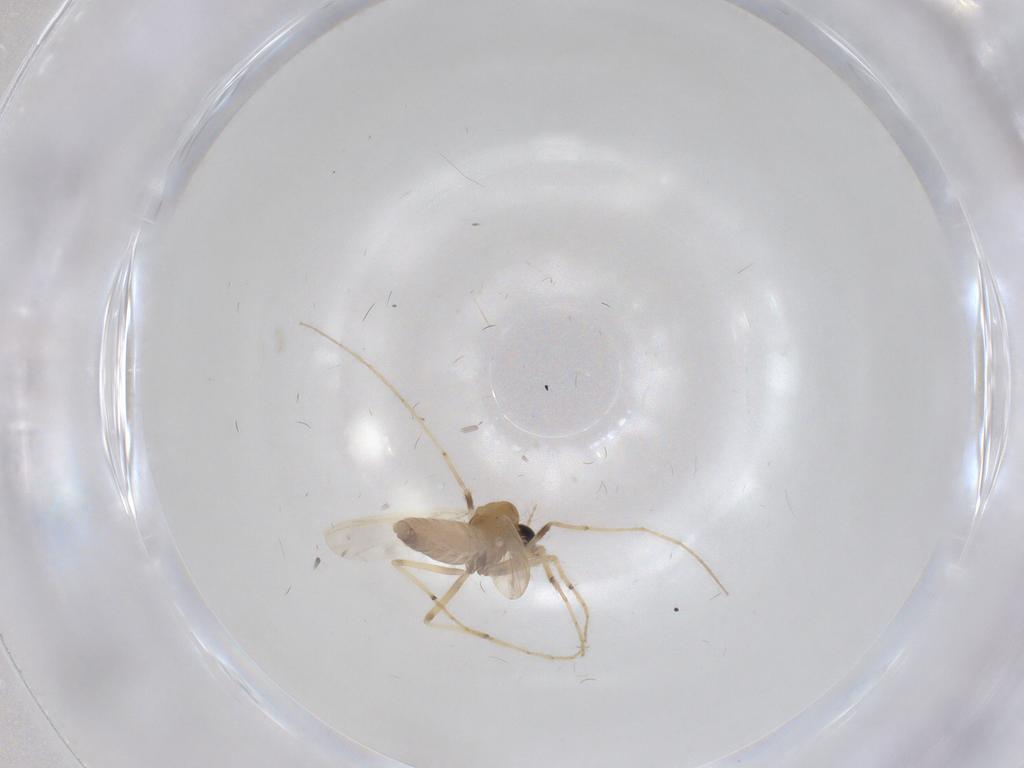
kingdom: Animalia
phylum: Arthropoda
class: Insecta
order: Diptera
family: Chironomidae
